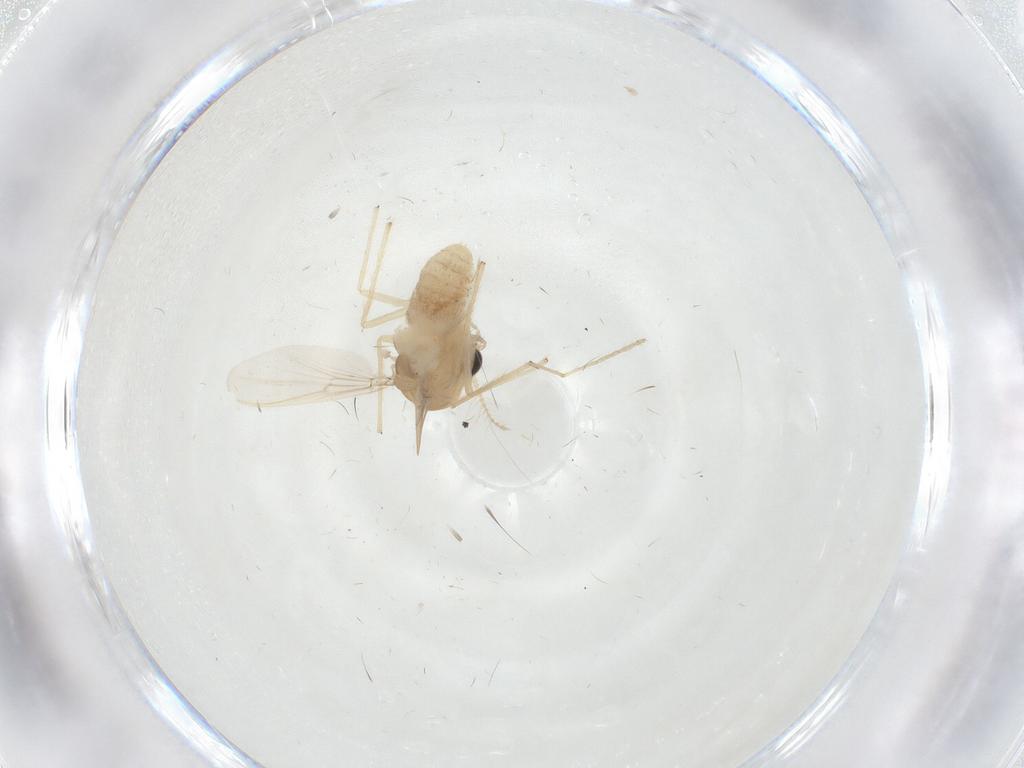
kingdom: Animalia
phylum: Arthropoda
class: Insecta
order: Diptera
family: Chironomidae
